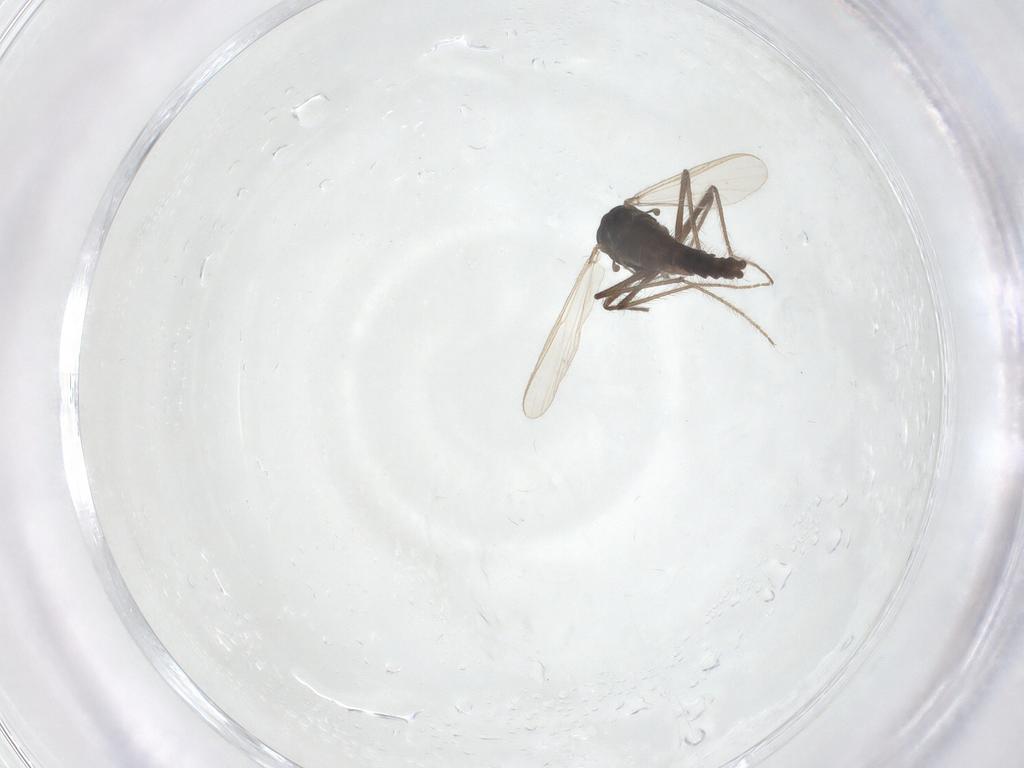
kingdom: Animalia
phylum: Arthropoda
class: Insecta
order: Diptera
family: Chironomidae
